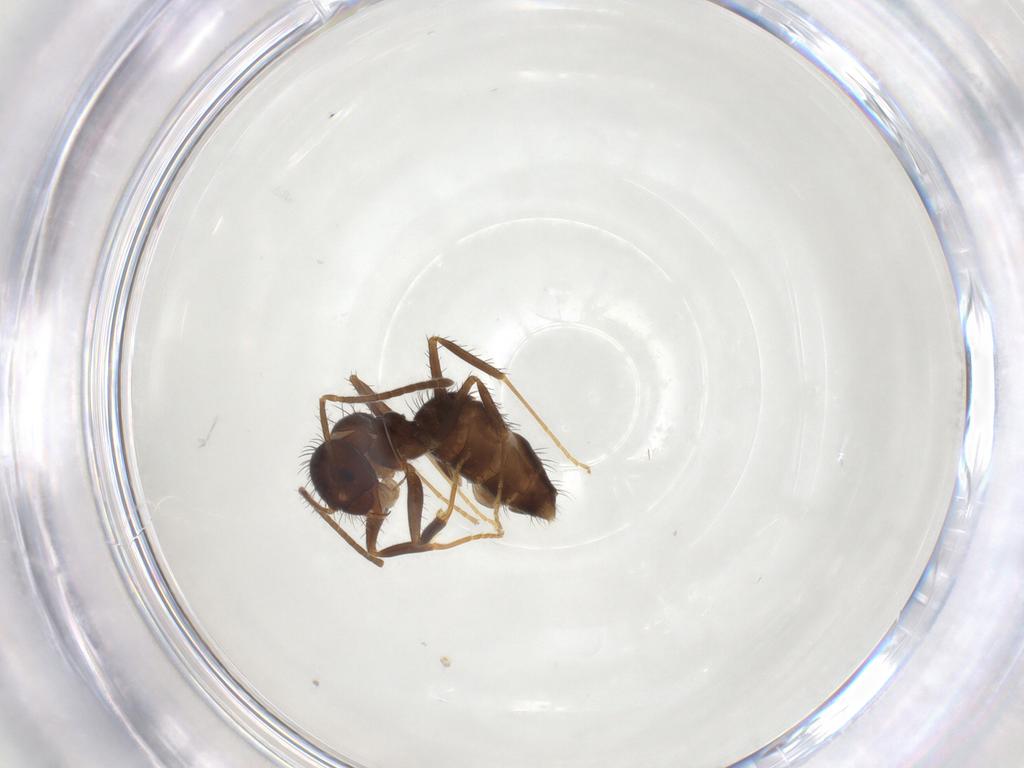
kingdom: Animalia
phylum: Arthropoda
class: Insecta
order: Hymenoptera
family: Formicidae
